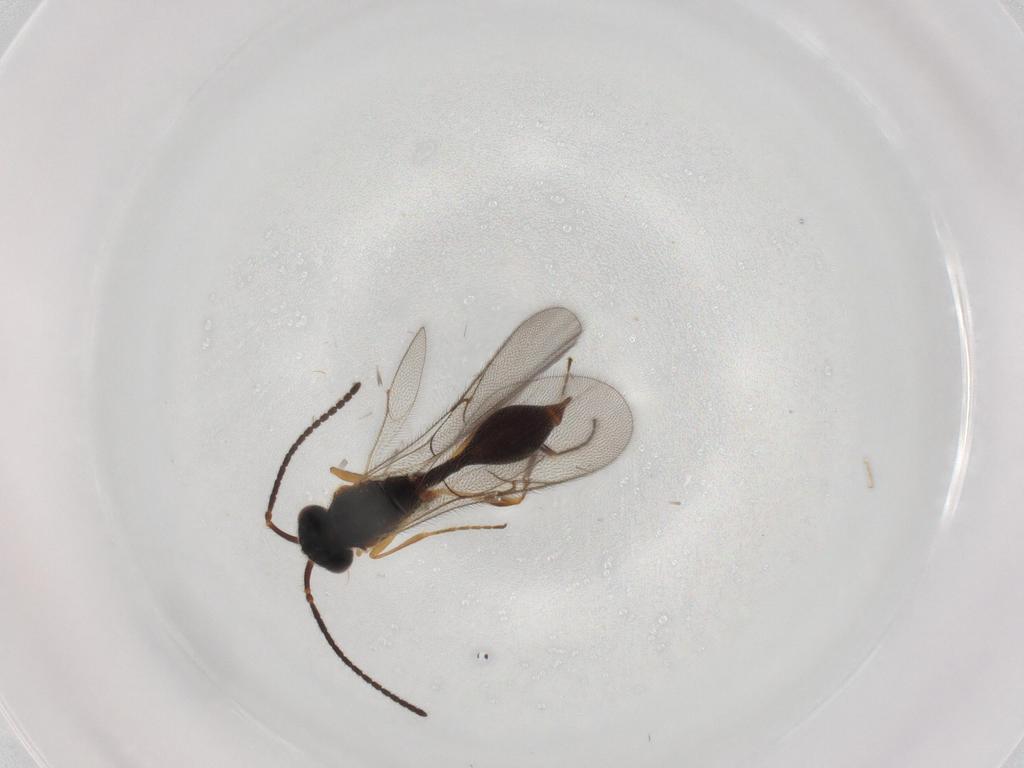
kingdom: Animalia
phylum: Arthropoda
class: Insecta
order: Hymenoptera
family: Diapriidae
